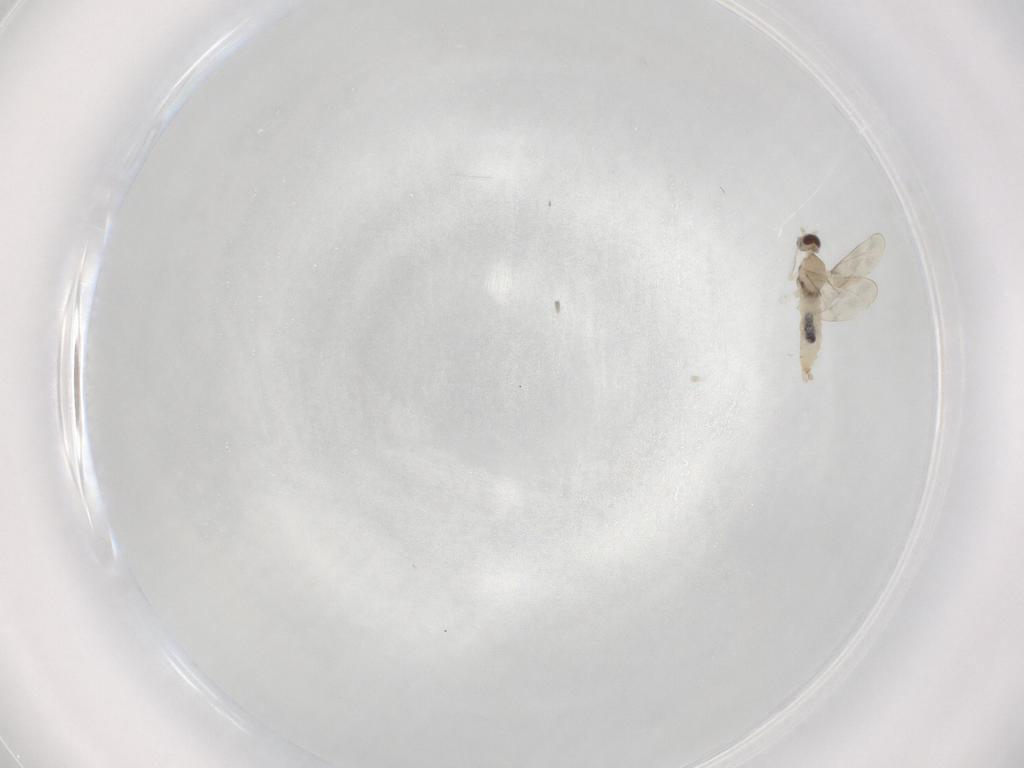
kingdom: Animalia
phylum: Arthropoda
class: Insecta
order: Diptera
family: Cecidomyiidae
